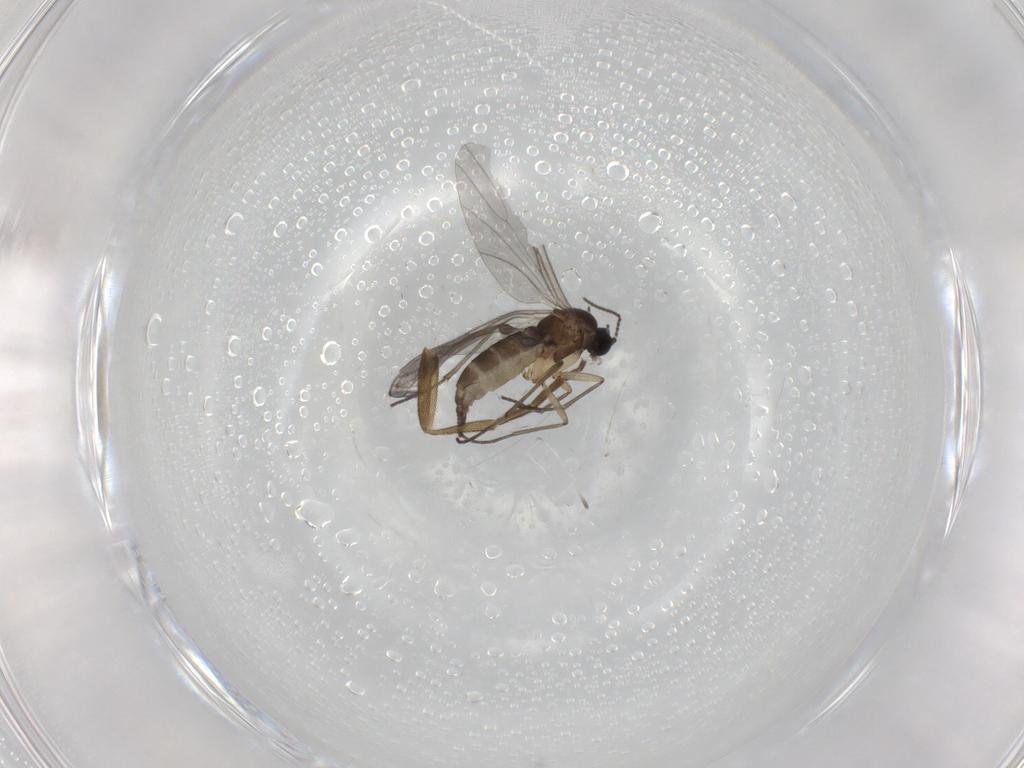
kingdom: Animalia
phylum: Arthropoda
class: Insecta
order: Diptera
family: Sciaridae
